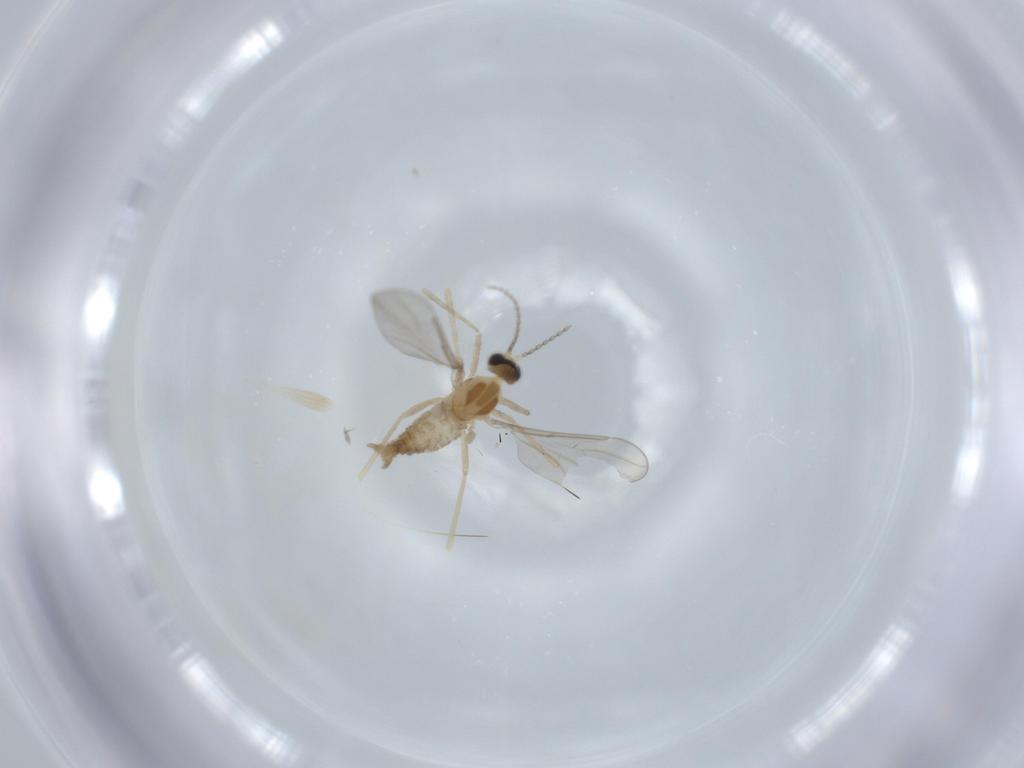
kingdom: Animalia
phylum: Arthropoda
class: Insecta
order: Diptera
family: Cecidomyiidae
